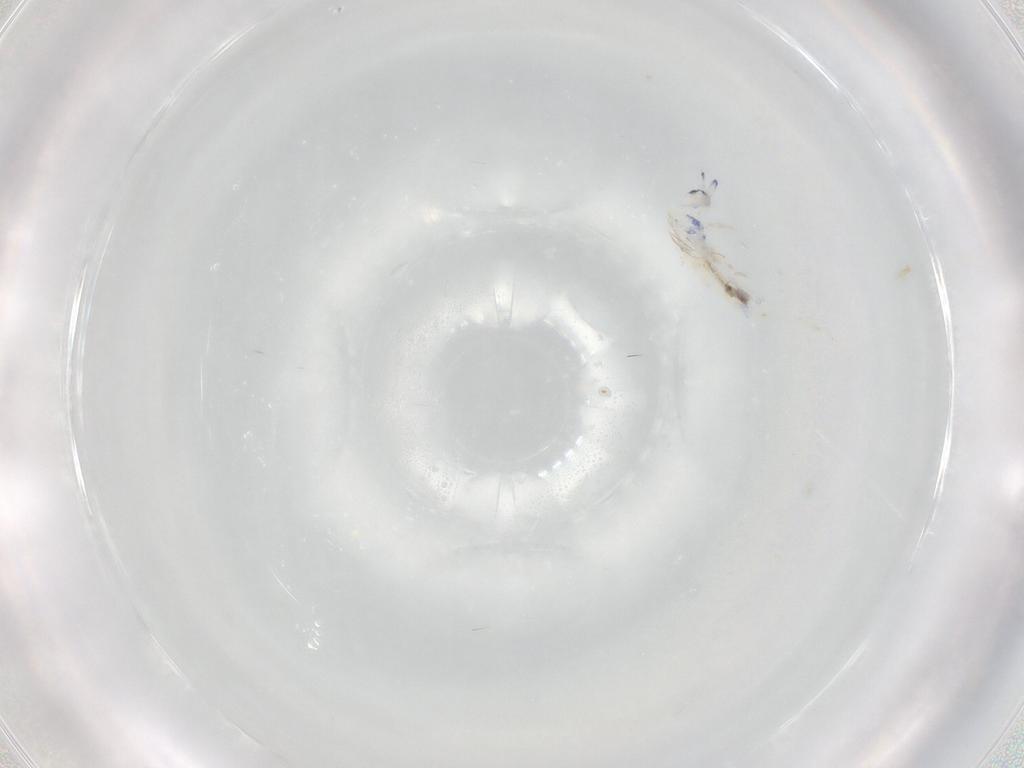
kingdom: Animalia
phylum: Arthropoda
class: Collembola
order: Entomobryomorpha
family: Entomobryidae
